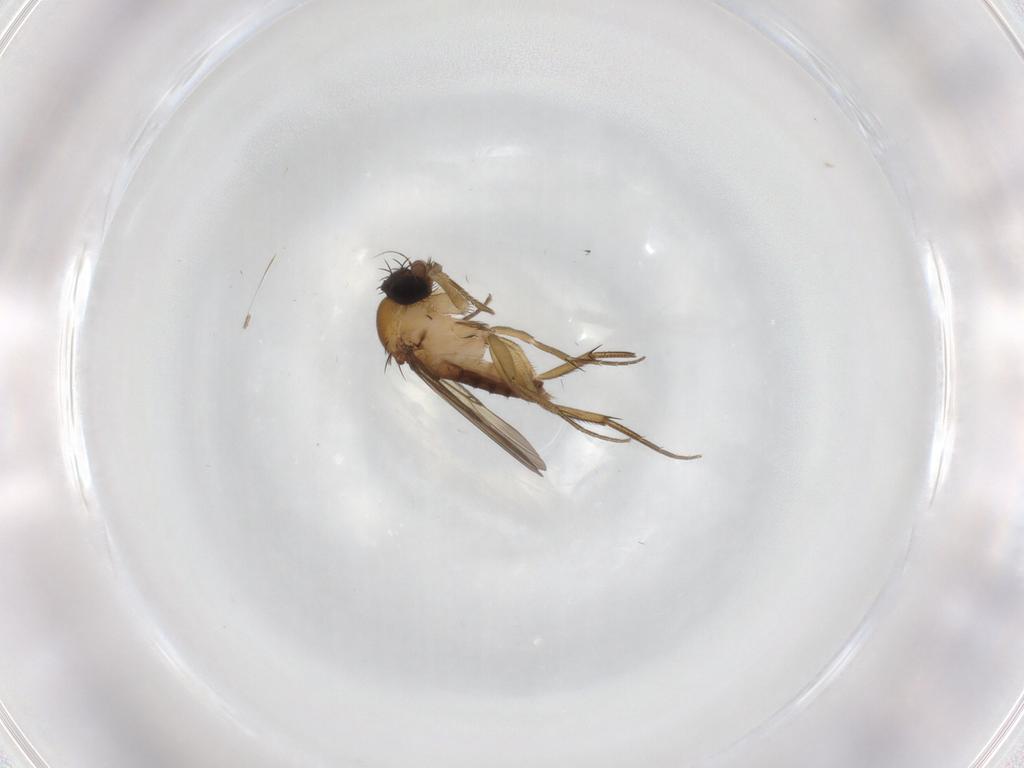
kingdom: Animalia
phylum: Arthropoda
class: Insecta
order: Diptera
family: Phoridae
